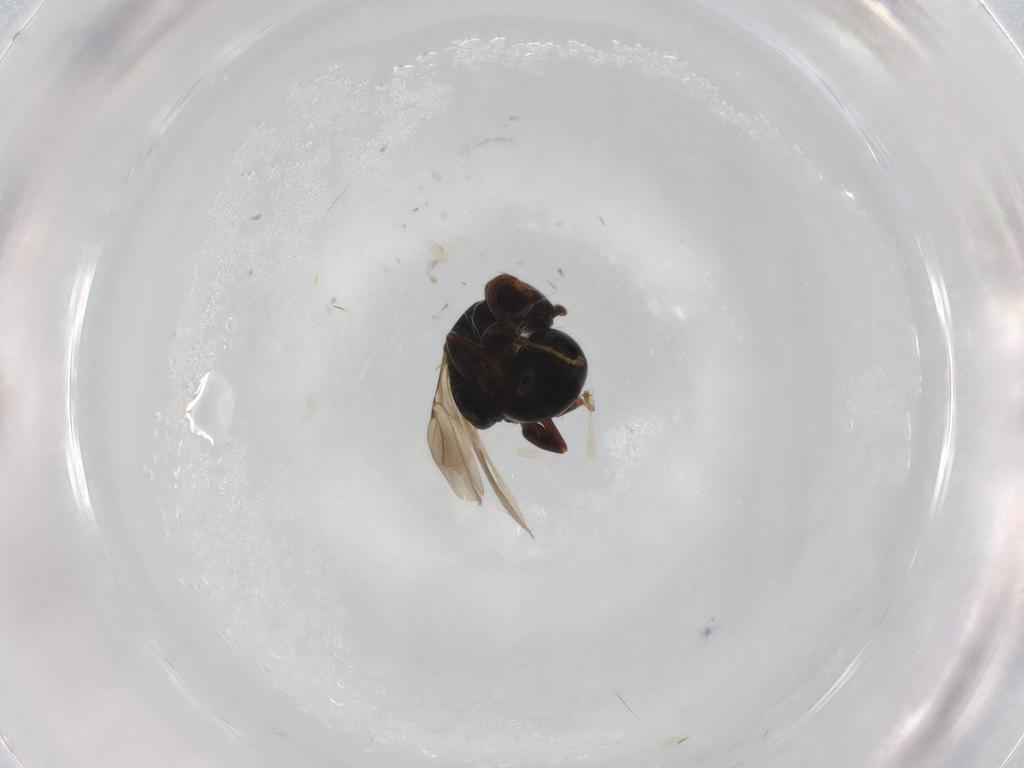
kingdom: Animalia
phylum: Arthropoda
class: Insecta
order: Hymenoptera
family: Bethylidae
